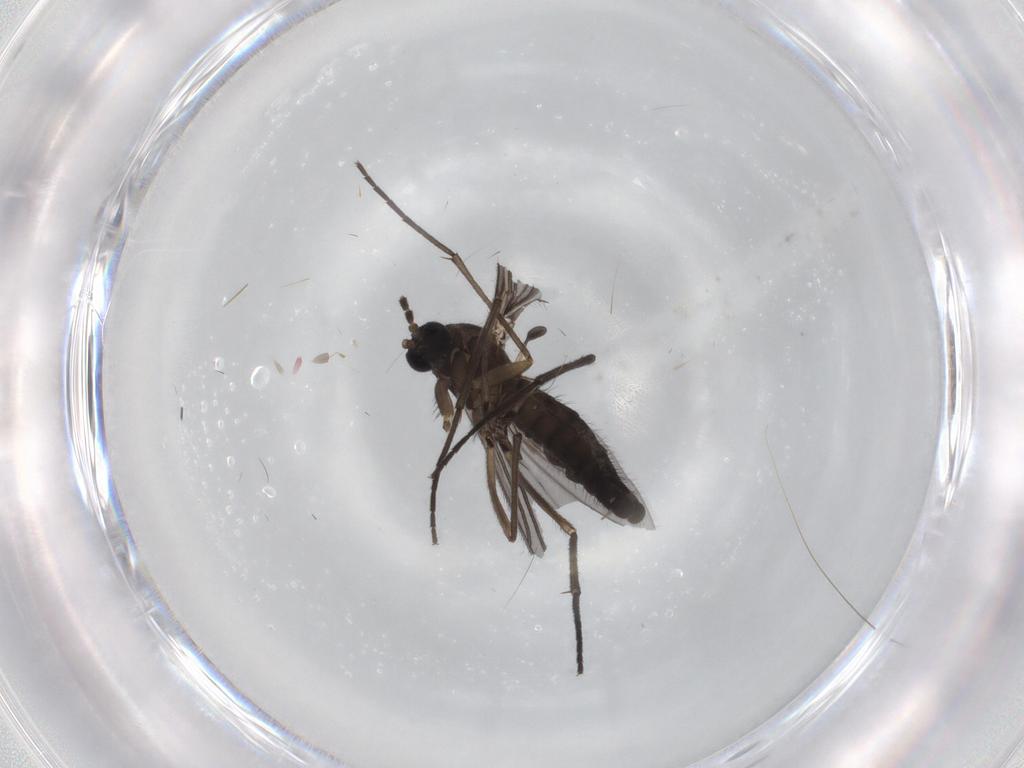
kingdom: Animalia
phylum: Arthropoda
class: Insecta
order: Diptera
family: Sciaridae
